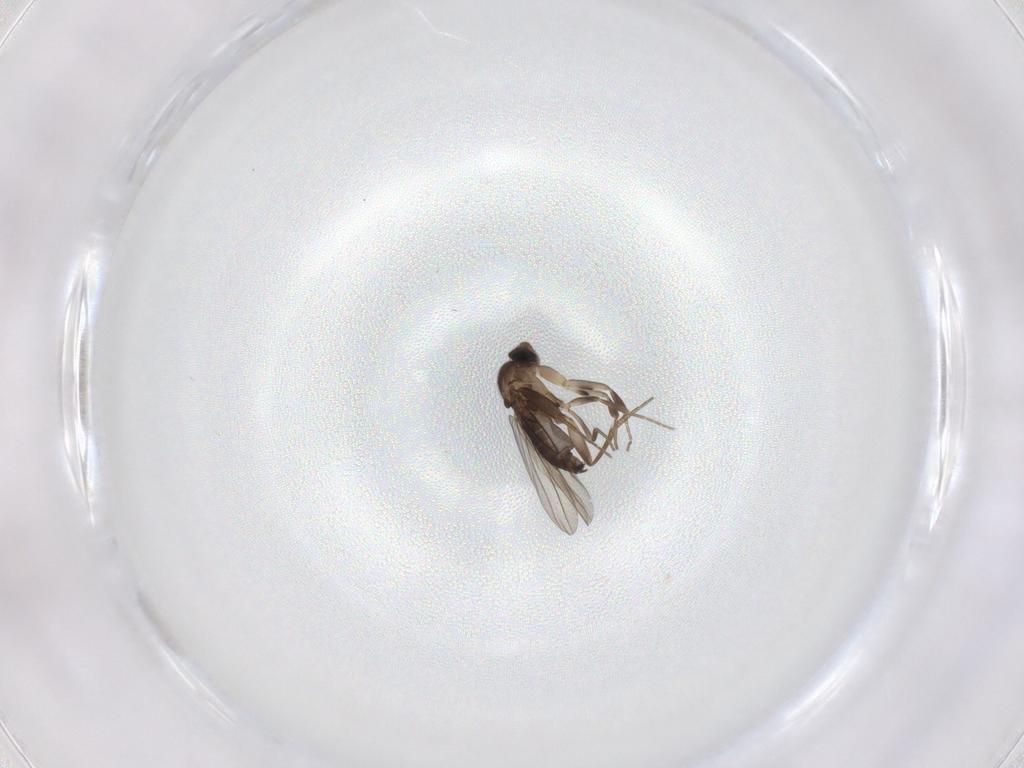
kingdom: Animalia
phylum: Arthropoda
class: Insecta
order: Diptera
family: Phoridae
